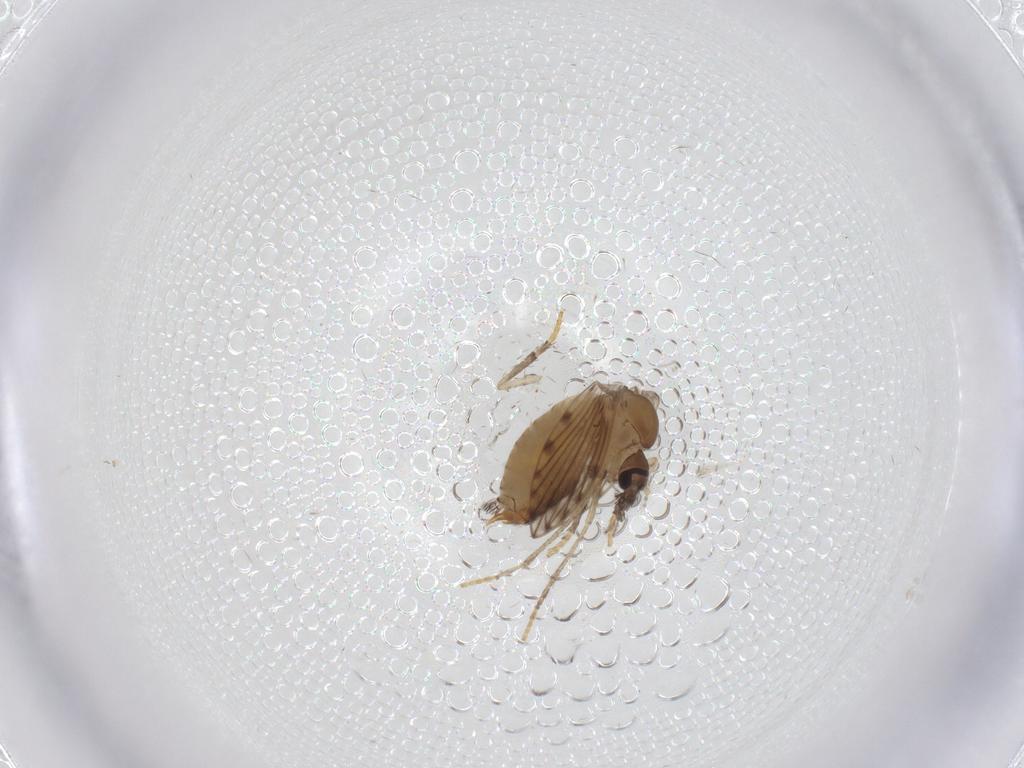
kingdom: Animalia
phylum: Arthropoda
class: Insecta
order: Diptera
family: Psychodidae
